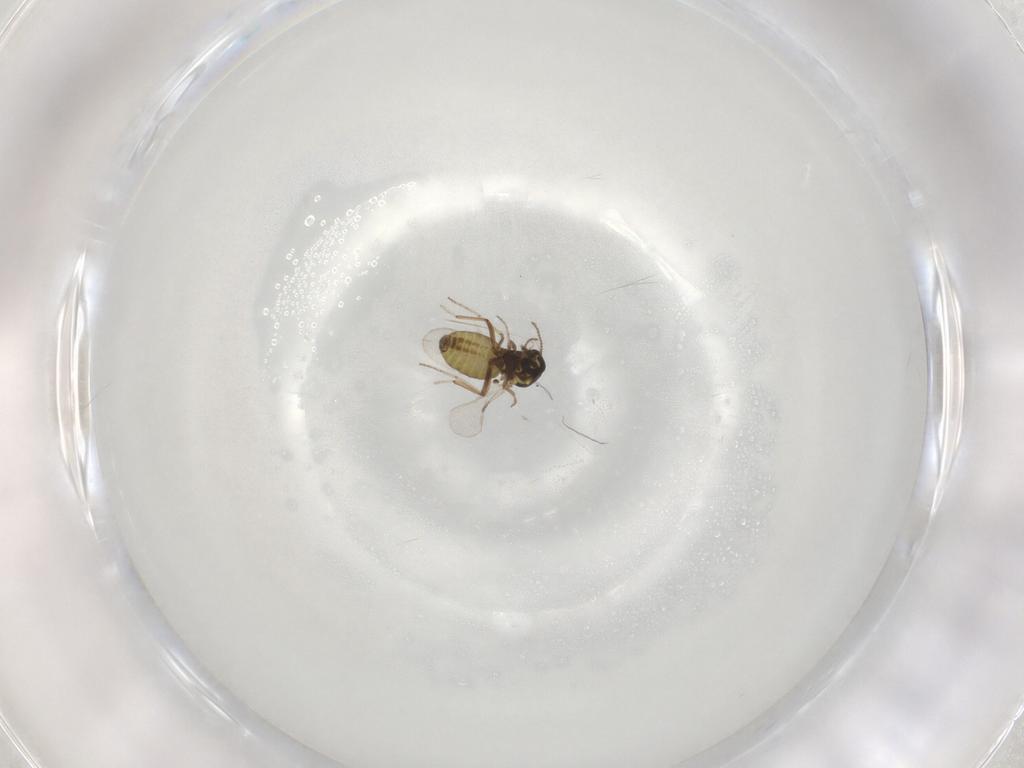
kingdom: Animalia
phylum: Arthropoda
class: Insecta
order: Diptera
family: Ceratopogonidae
